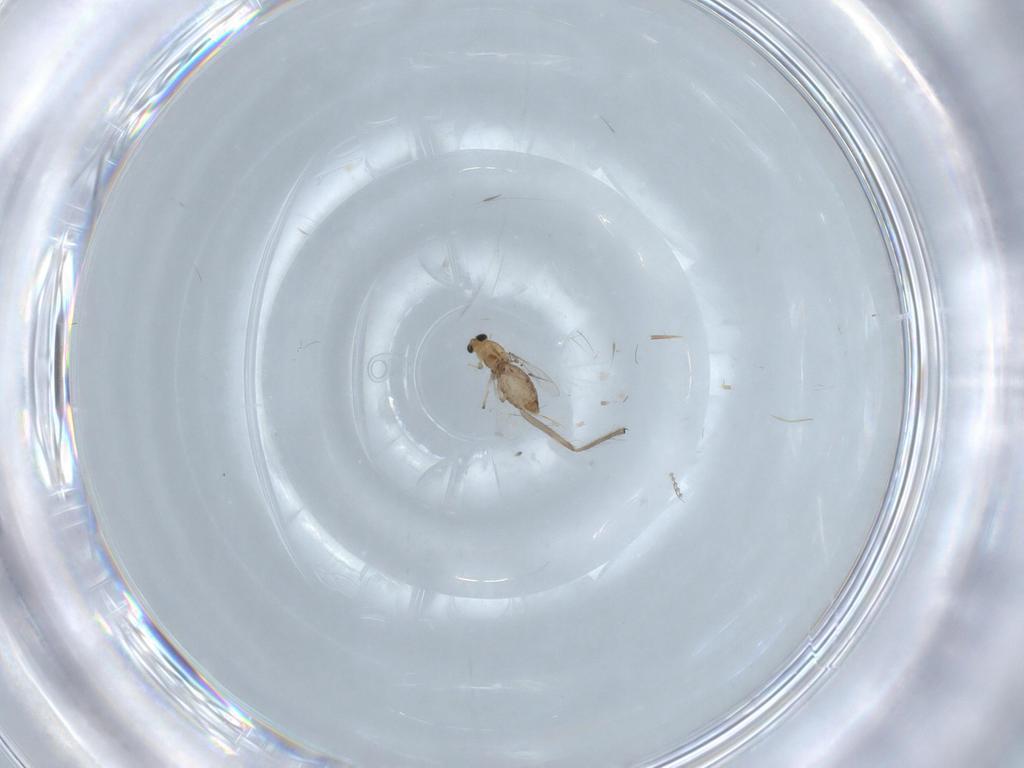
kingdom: Animalia
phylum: Arthropoda
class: Insecta
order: Diptera
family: Chironomidae
